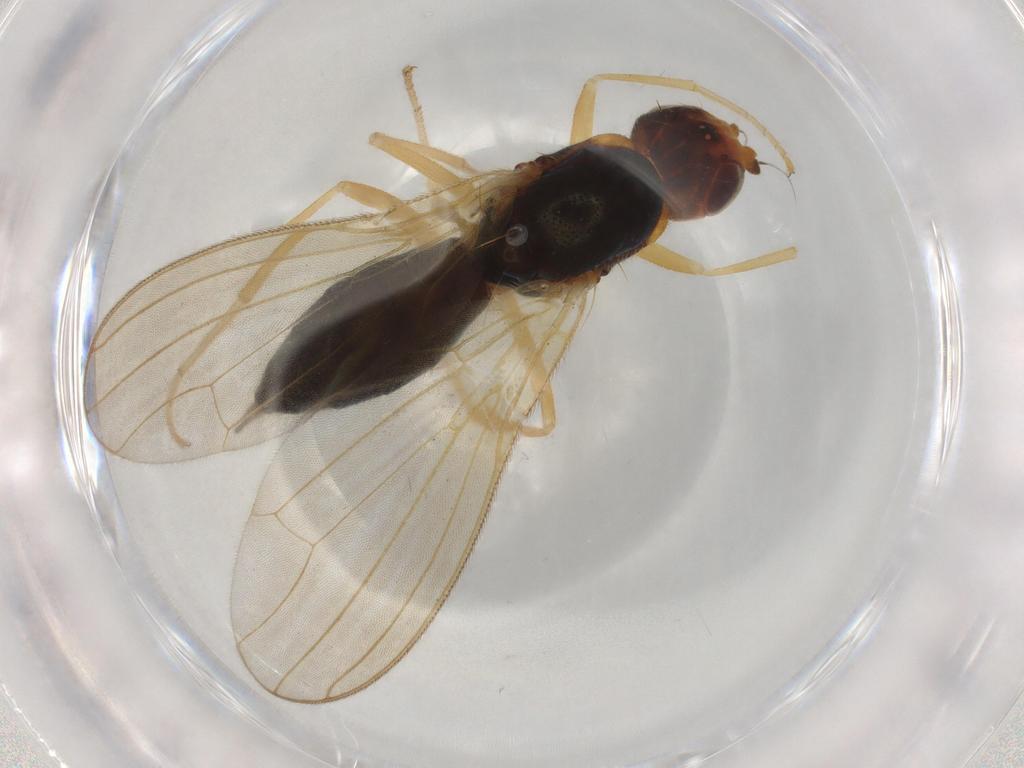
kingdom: Animalia
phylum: Arthropoda
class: Insecta
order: Diptera
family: Psilidae
